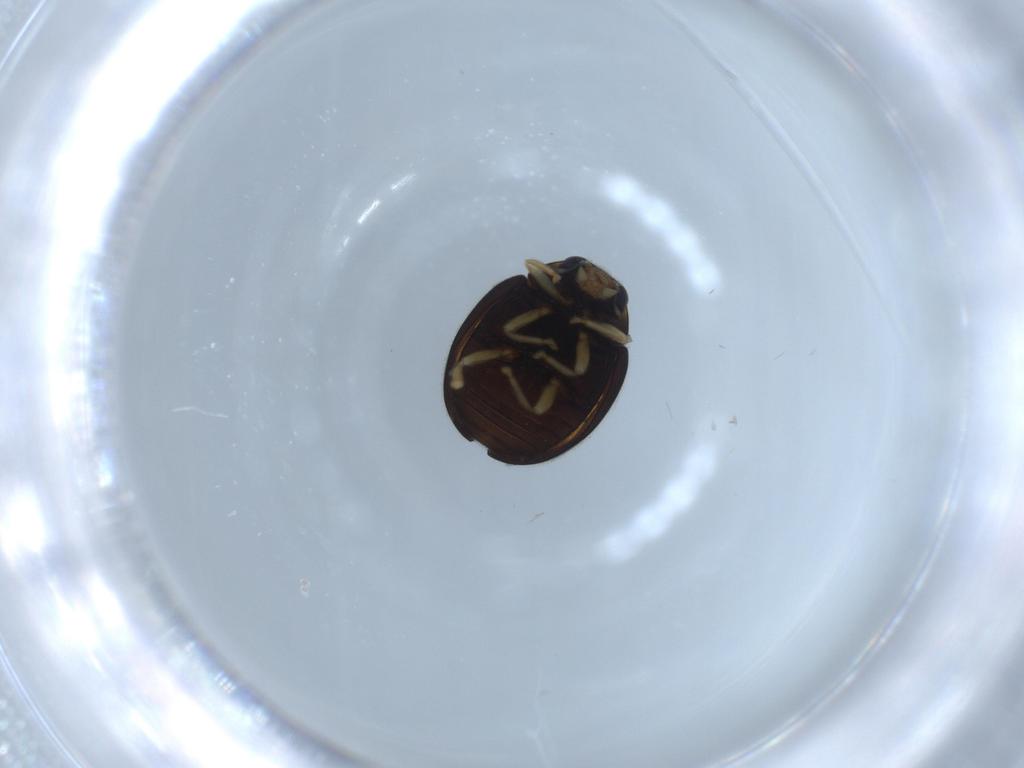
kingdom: Animalia
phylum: Arthropoda
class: Insecta
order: Coleoptera
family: Coccinellidae
